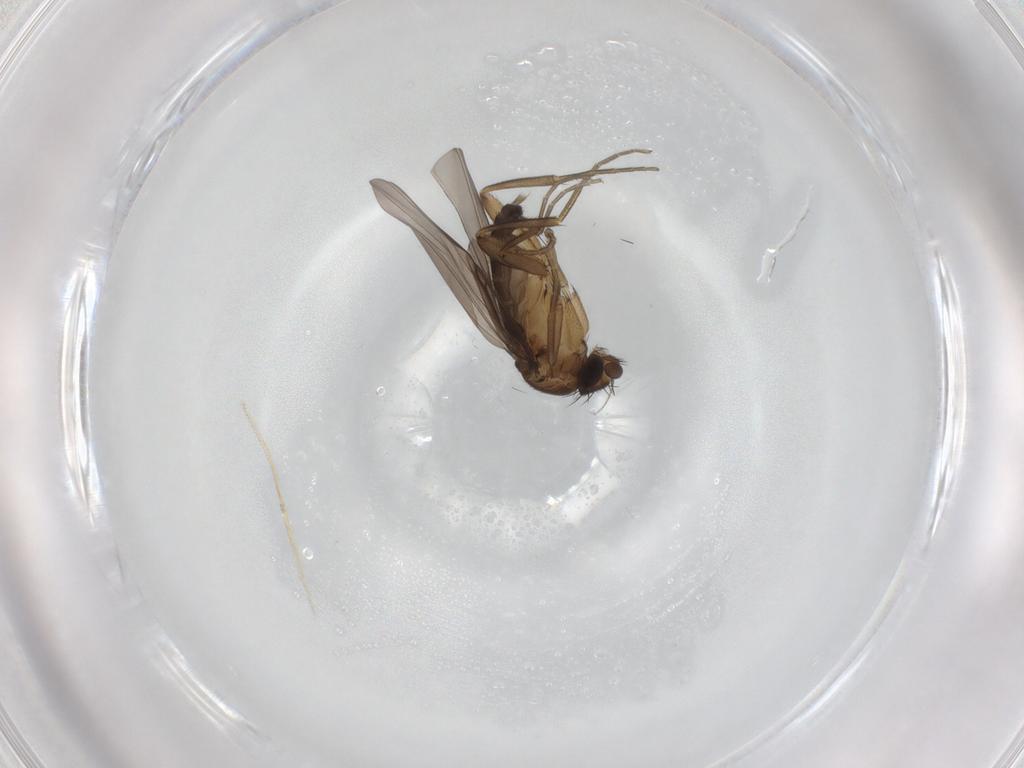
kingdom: Animalia
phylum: Arthropoda
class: Insecta
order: Diptera
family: Phoridae
